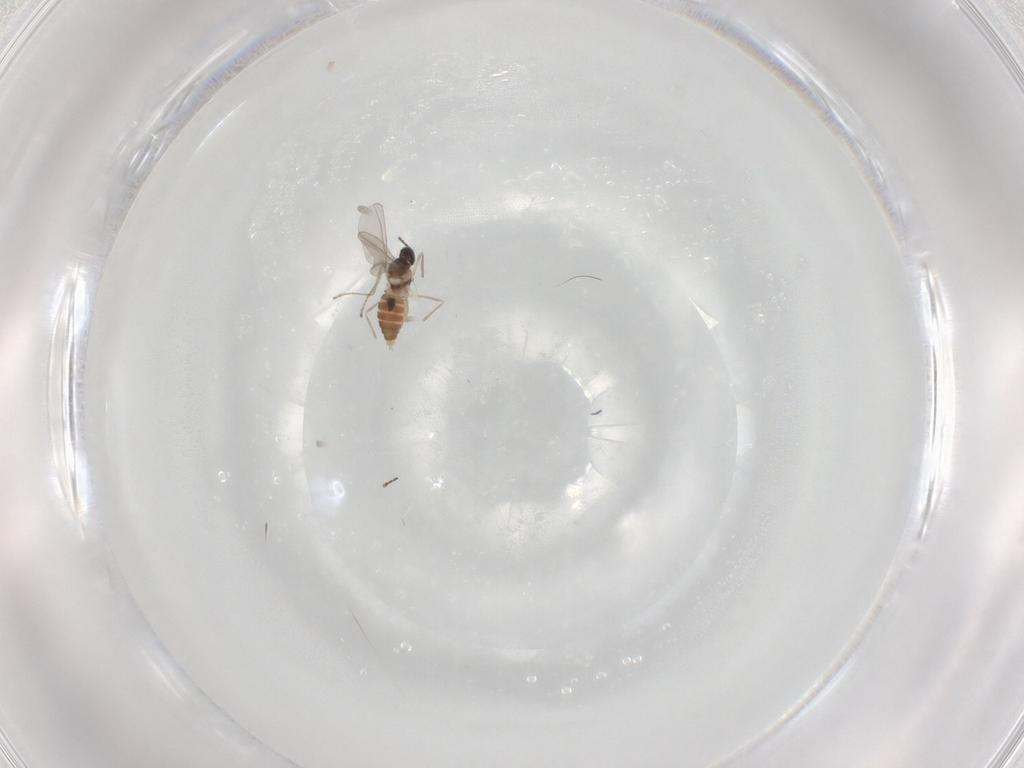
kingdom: Animalia
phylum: Arthropoda
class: Insecta
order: Diptera
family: Cecidomyiidae
